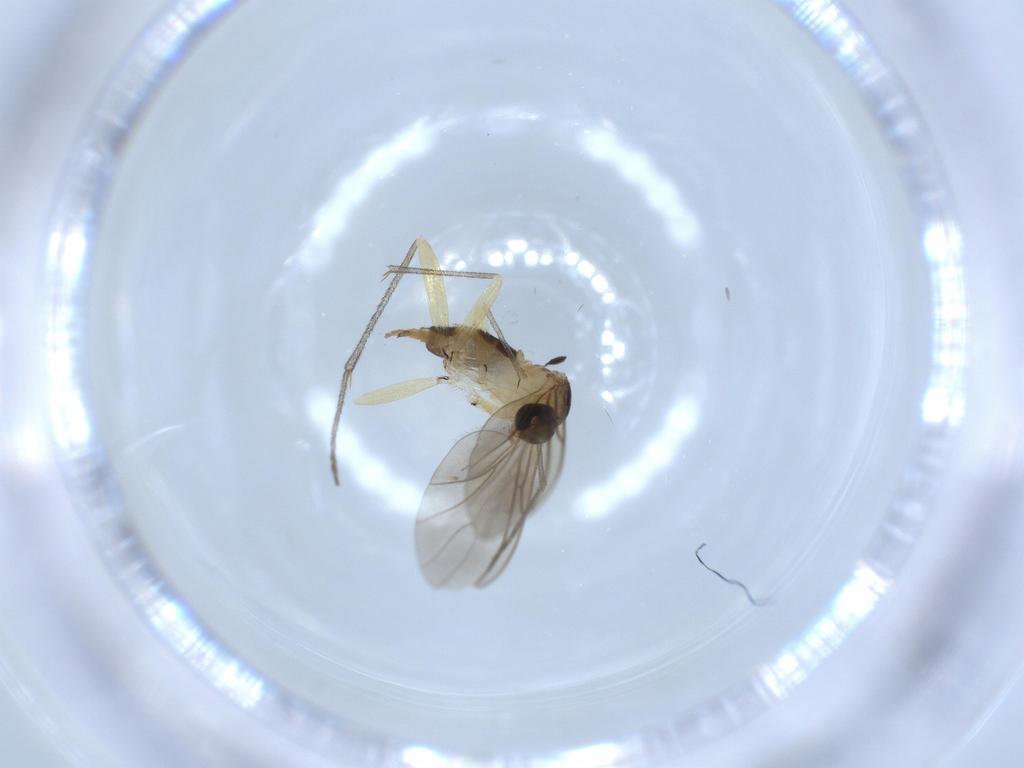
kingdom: Animalia
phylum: Arthropoda
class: Insecta
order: Diptera
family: Sciaridae
